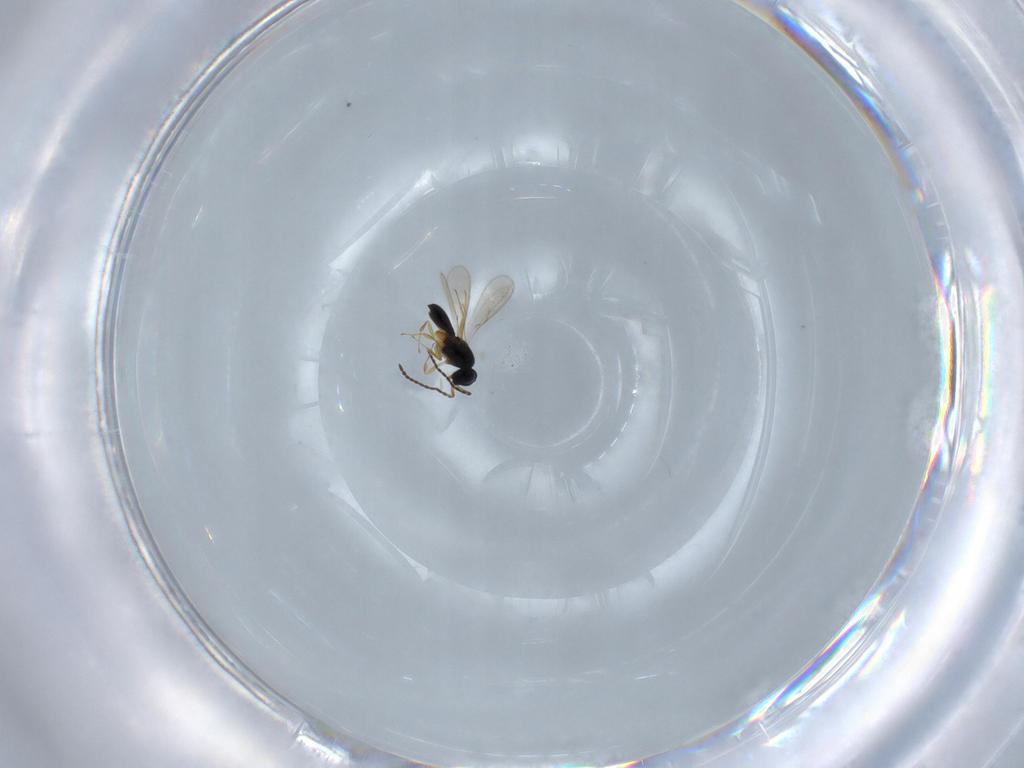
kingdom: Animalia
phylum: Arthropoda
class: Insecta
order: Hymenoptera
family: Scelionidae
